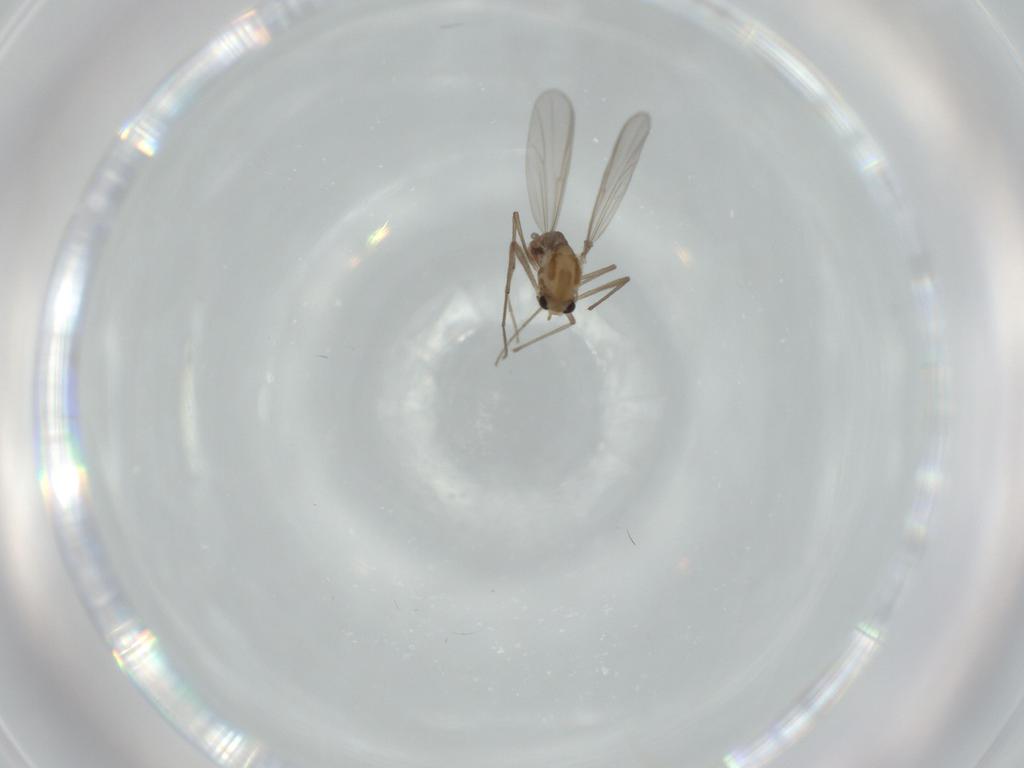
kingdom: Animalia
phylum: Arthropoda
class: Insecta
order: Diptera
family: Chironomidae
